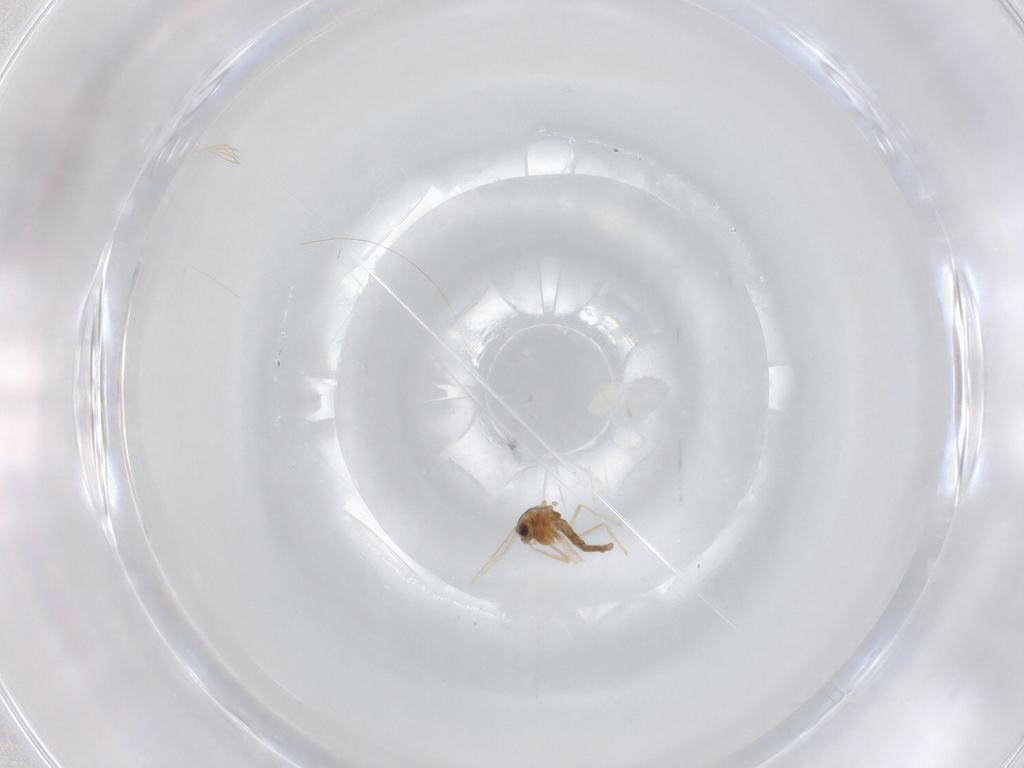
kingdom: Animalia
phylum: Arthropoda
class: Insecta
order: Diptera
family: Chironomidae
